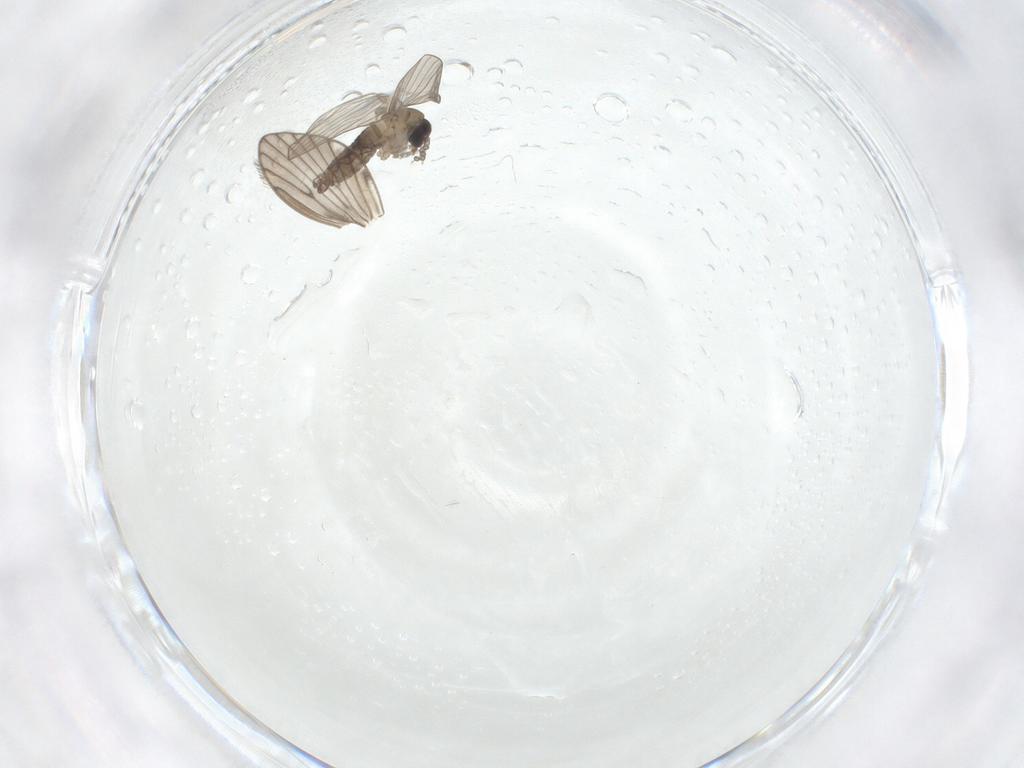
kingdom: Animalia
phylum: Arthropoda
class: Insecta
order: Diptera
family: Psychodidae
